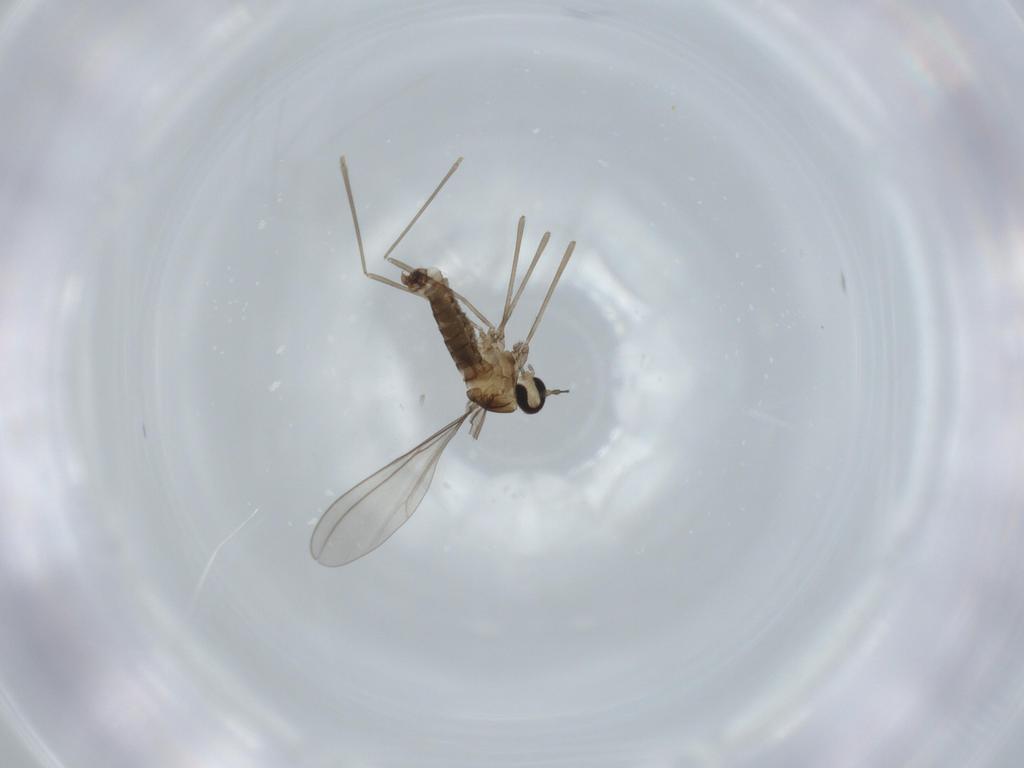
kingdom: Animalia
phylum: Arthropoda
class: Insecta
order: Diptera
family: Cecidomyiidae
